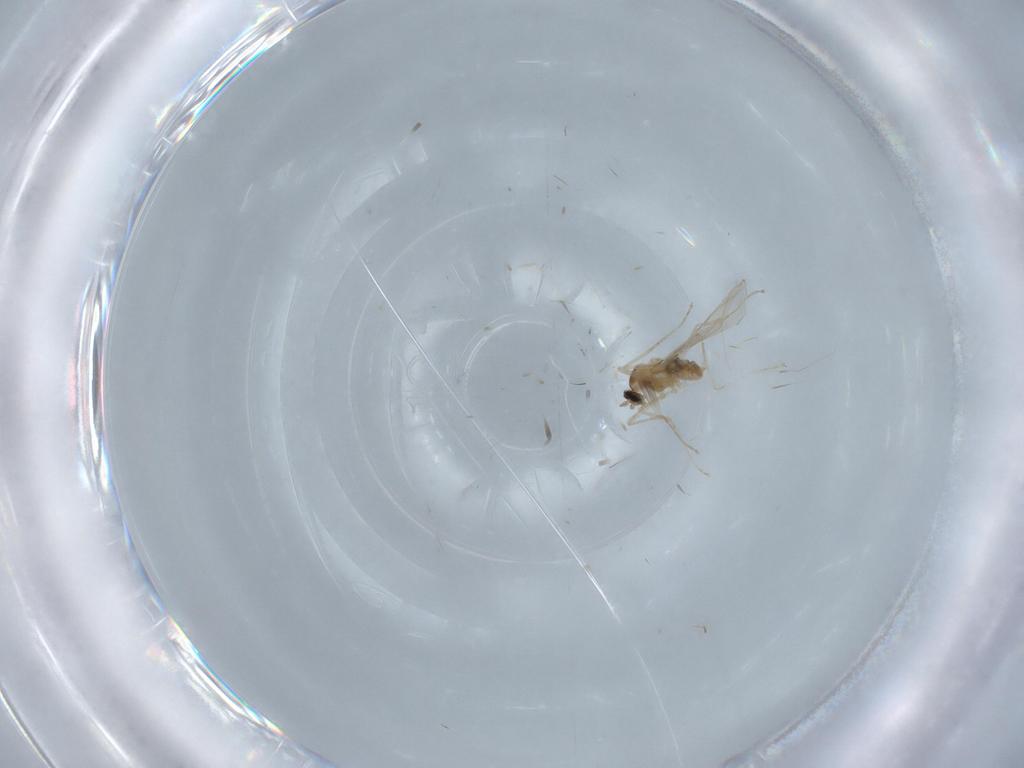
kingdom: Animalia
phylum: Arthropoda
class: Insecta
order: Diptera
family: Cecidomyiidae
